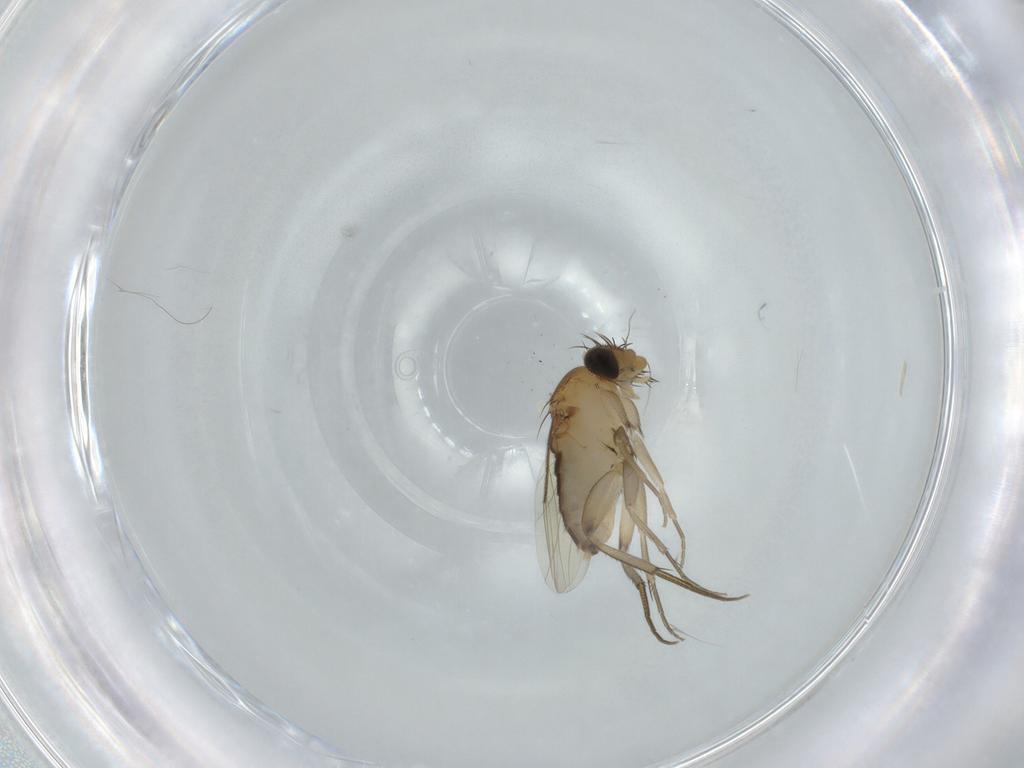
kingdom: Animalia
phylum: Arthropoda
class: Insecta
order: Diptera
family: Phoridae
